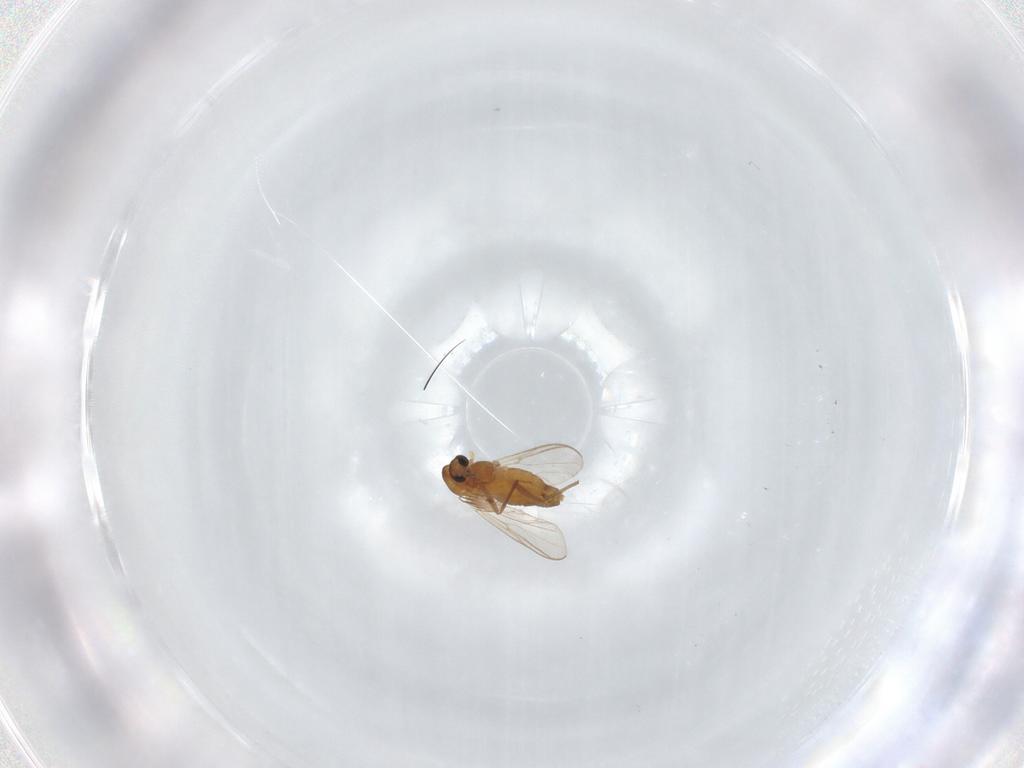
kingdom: Animalia
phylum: Arthropoda
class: Insecta
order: Diptera
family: Chironomidae
